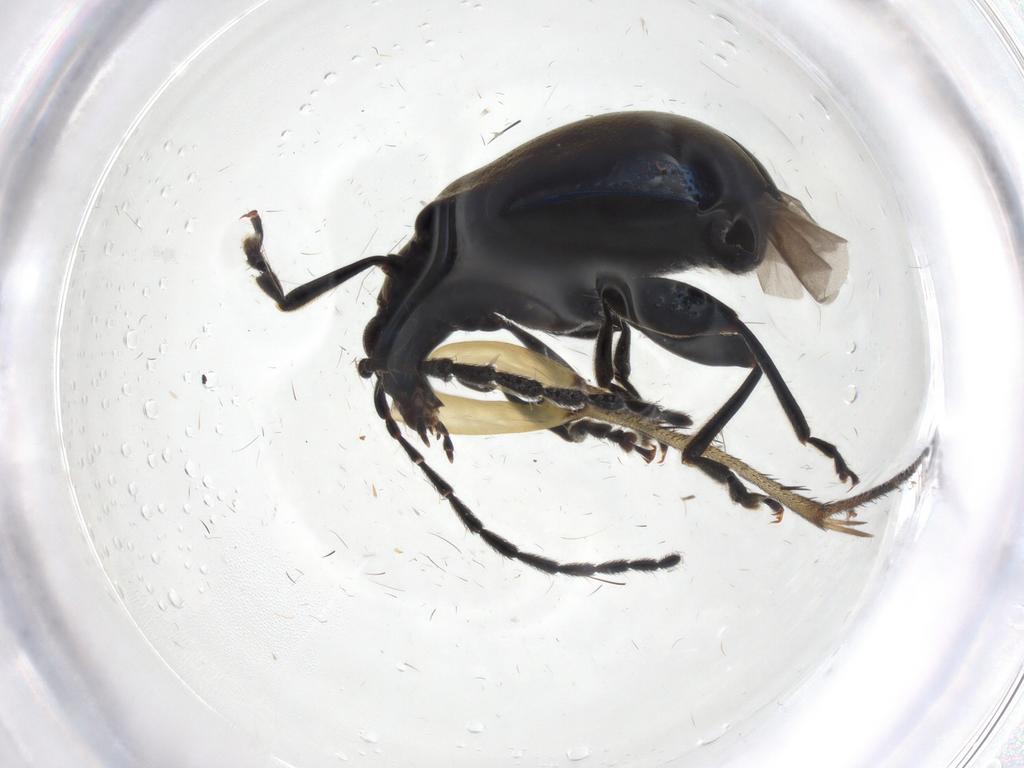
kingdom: Animalia
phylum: Arthropoda
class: Insecta
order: Coleoptera
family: Chrysomelidae
